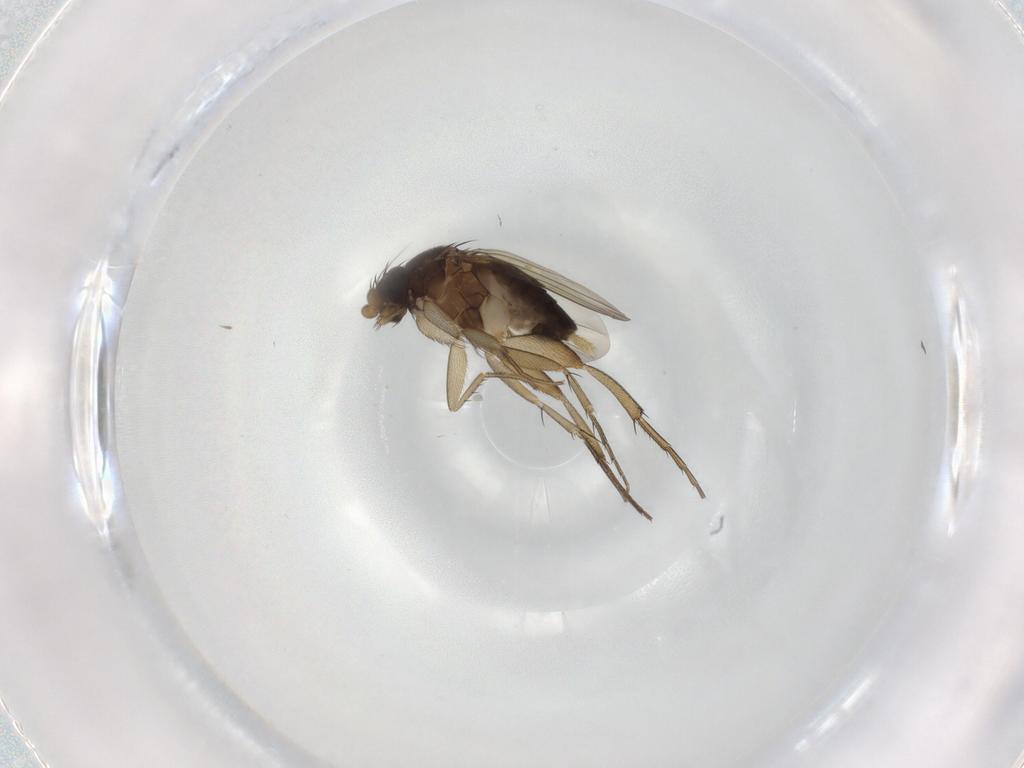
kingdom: Animalia
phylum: Arthropoda
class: Insecta
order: Diptera
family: Phoridae
